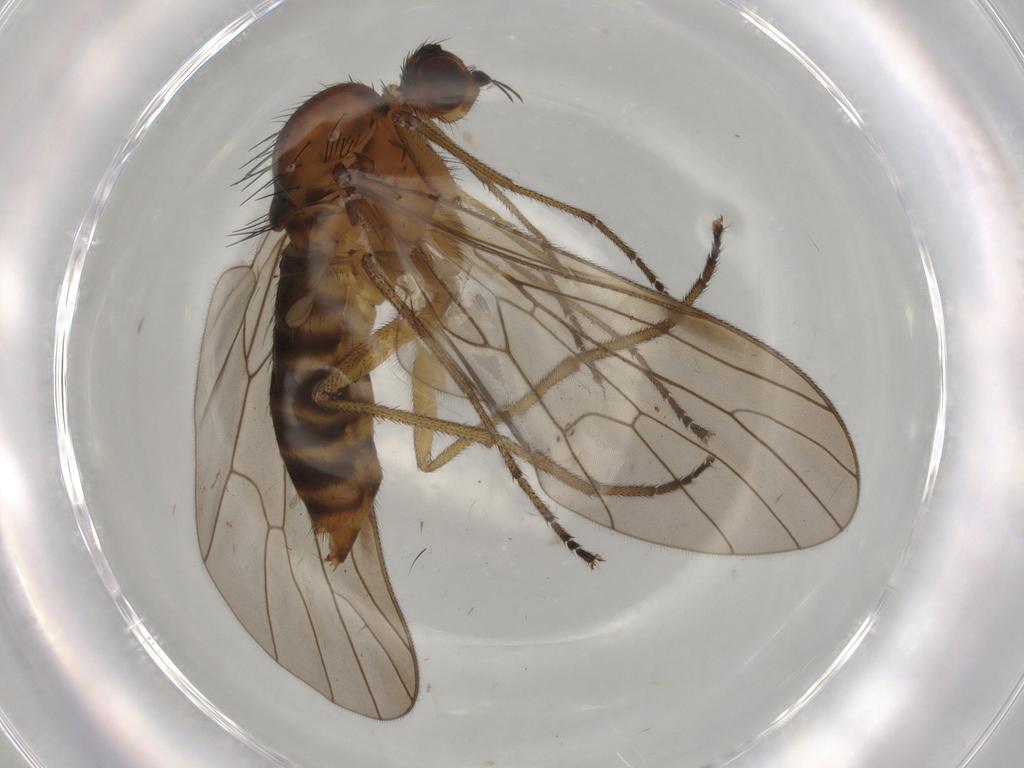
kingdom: Animalia
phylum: Arthropoda
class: Insecta
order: Diptera
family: Brachystomatidae
